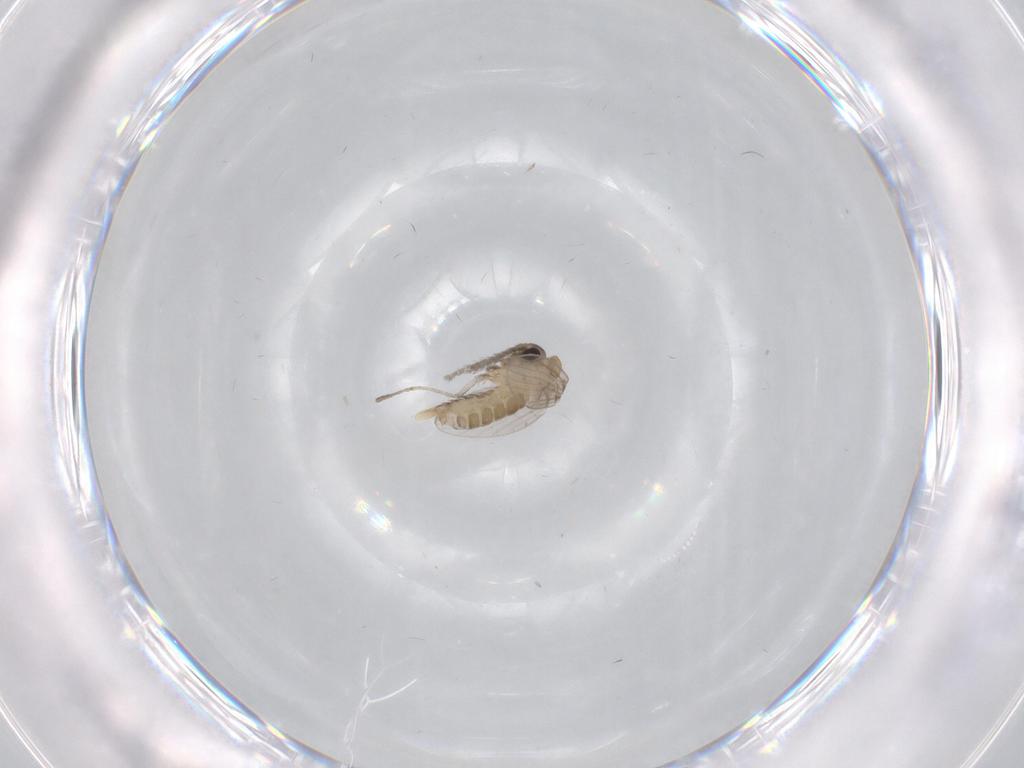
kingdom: Animalia
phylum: Arthropoda
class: Insecta
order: Diptera
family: Psychodidae
